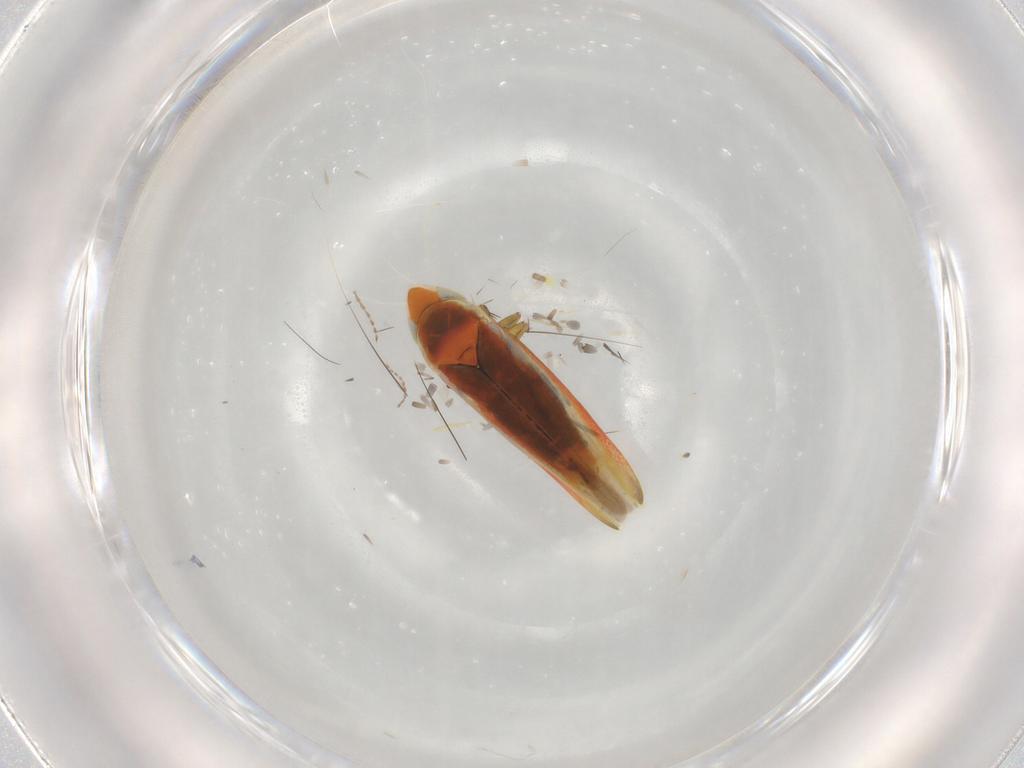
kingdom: Animalia
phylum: Arthropoda
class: Insecta
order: Hemiptera
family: Cicadellidae
